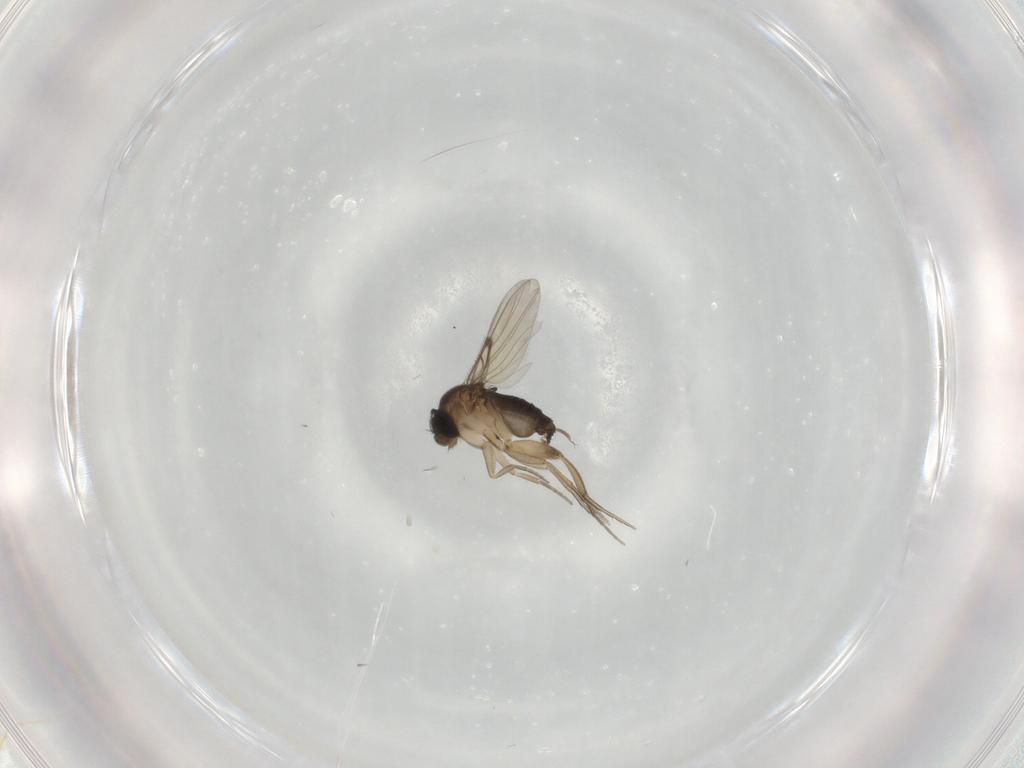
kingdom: Animalia
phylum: Arthropoda
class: Insecta
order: Diptera
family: Phoridae
